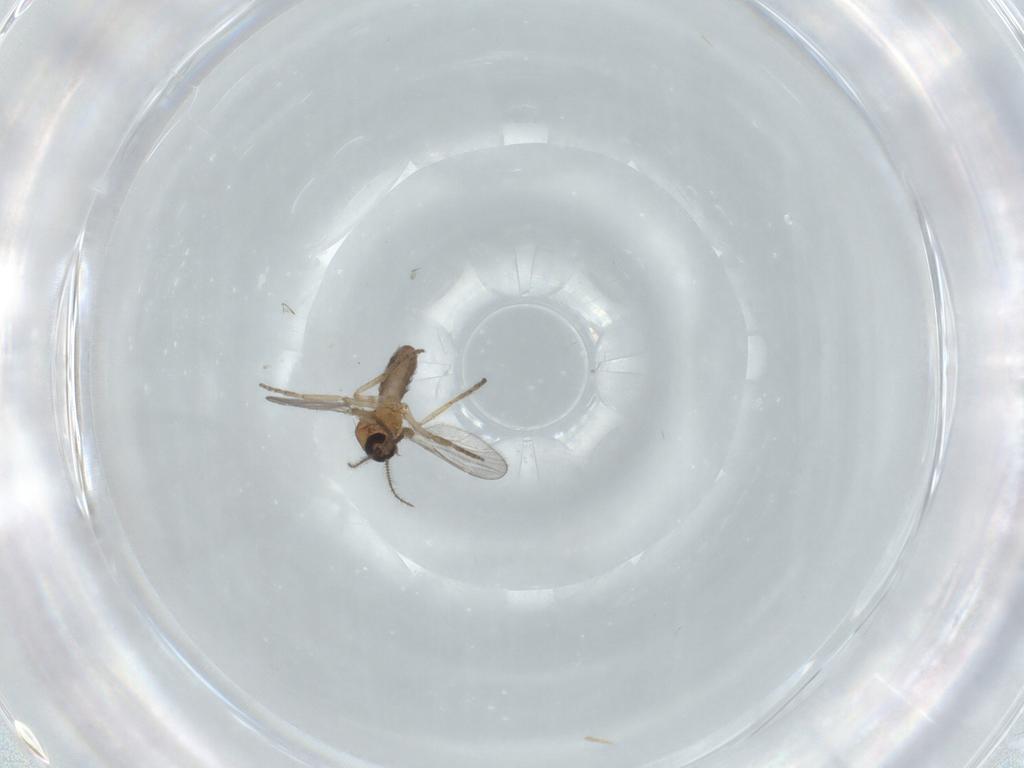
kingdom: Animalia
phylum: Arthropoda
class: Insecta
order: Diptera
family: Ceratopogonidae
